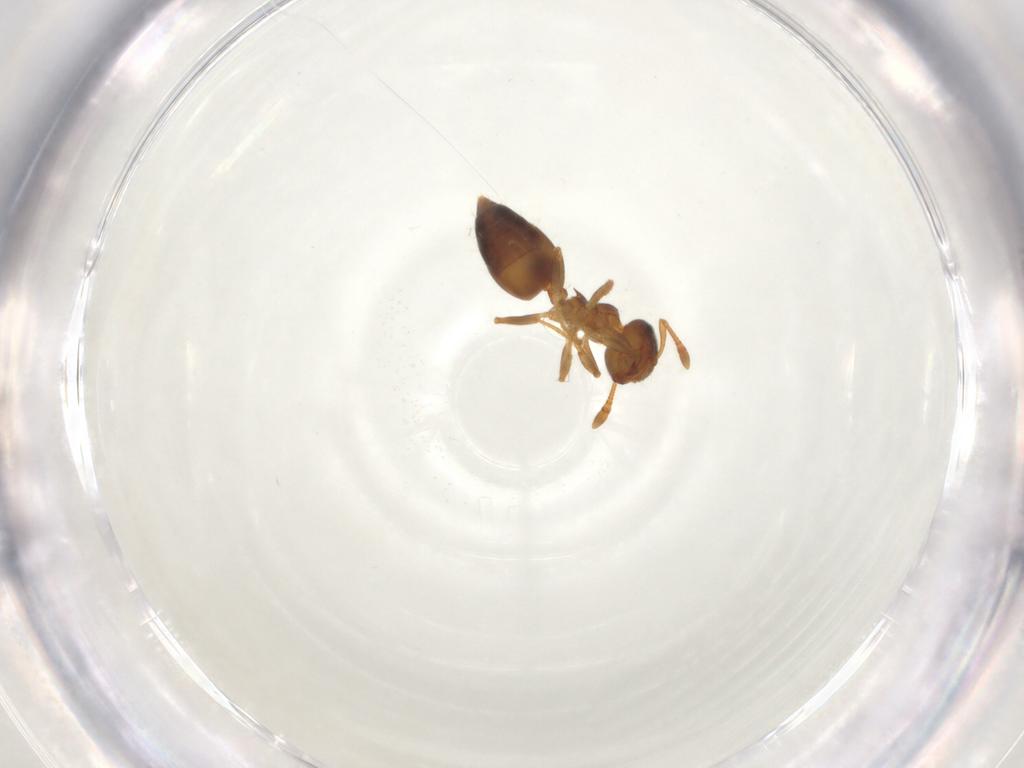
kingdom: Animalia
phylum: Arthropoda
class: Insecta
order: Hymenoptera
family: Formicidae
